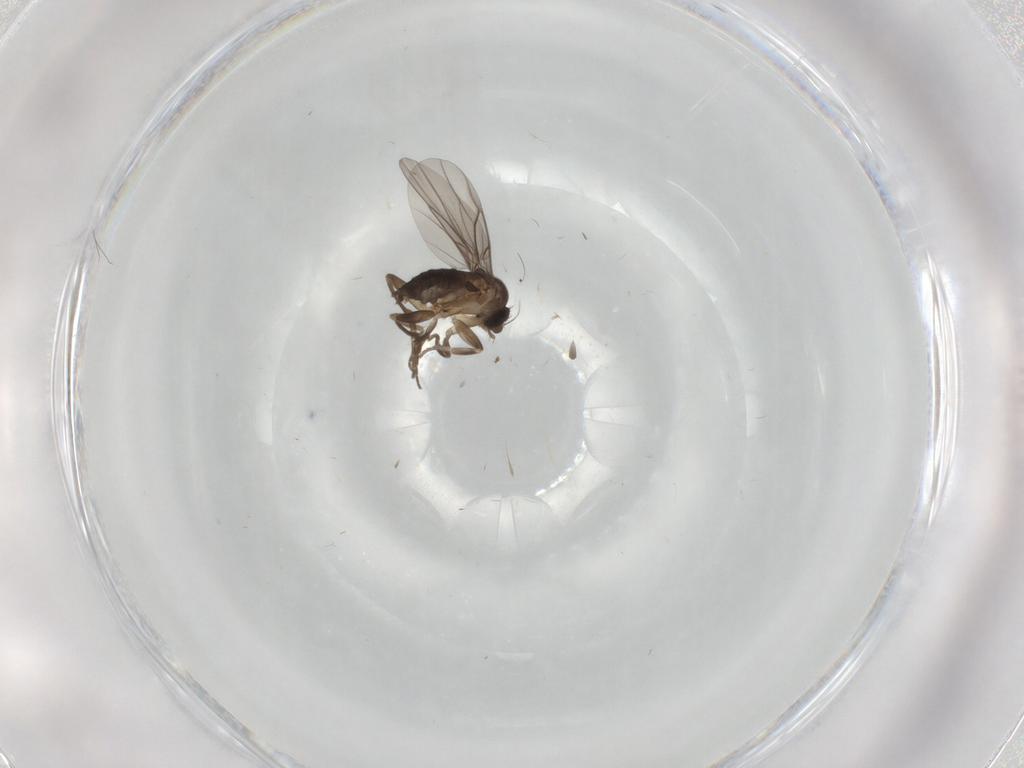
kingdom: Animalia
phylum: Arthropoda
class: Insecta
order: Diptera
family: Phoridae
